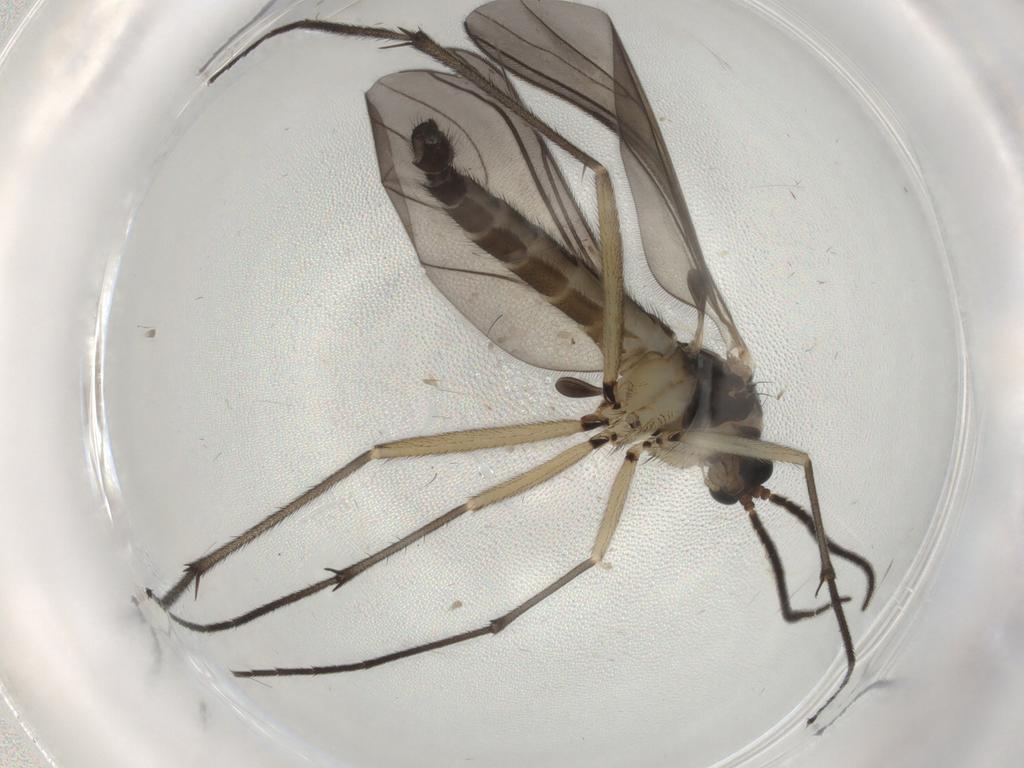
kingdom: Animalia
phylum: Arthropoda
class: Insecta
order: Diptera
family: Sciaridae
